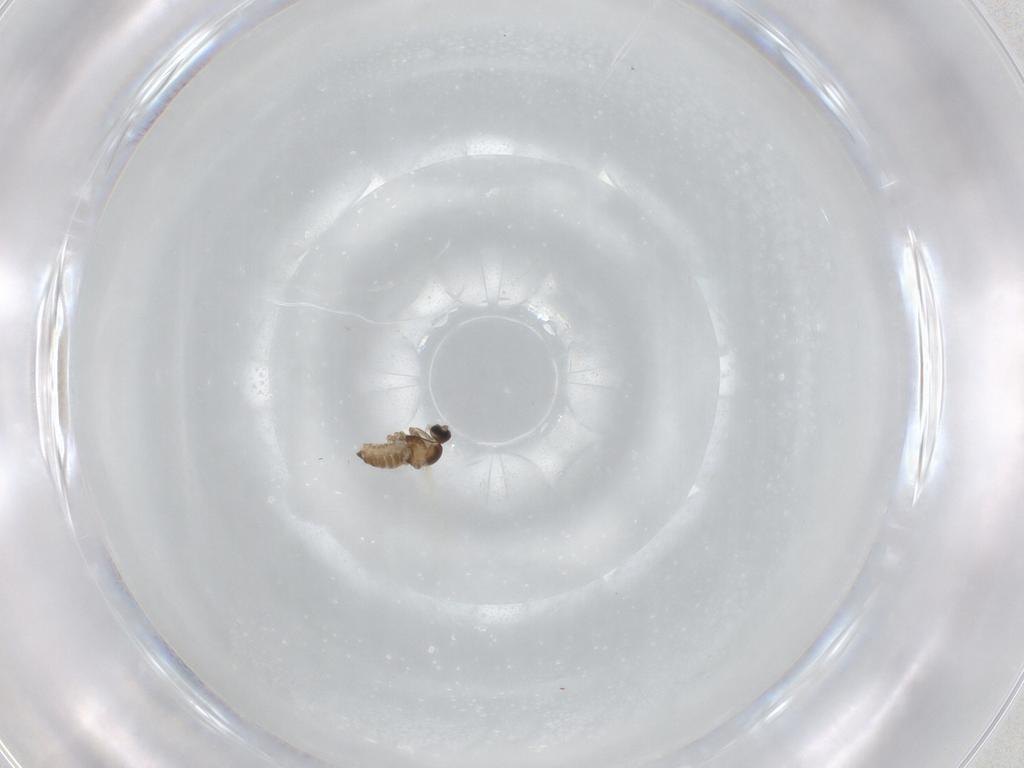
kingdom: Animalia
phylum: Arthropoda
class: Insecta
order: Diptera
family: Cecidomyiidae
